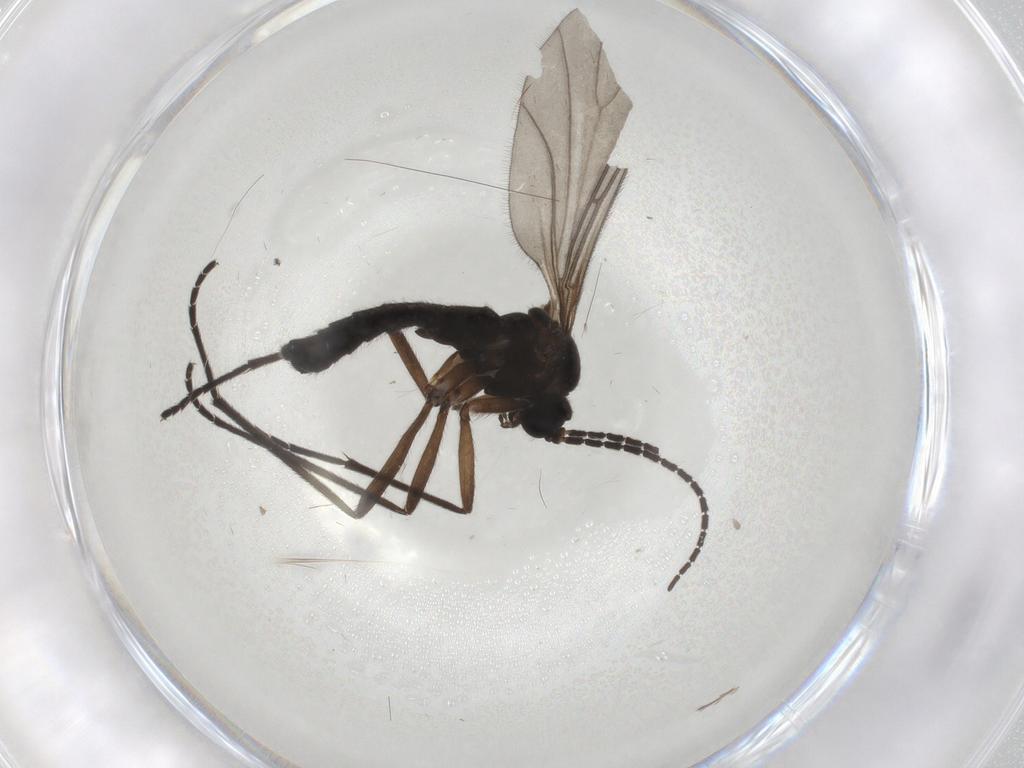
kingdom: Animalia
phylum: Arthropoda
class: Insecta
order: Diptera
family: Sciaridae
